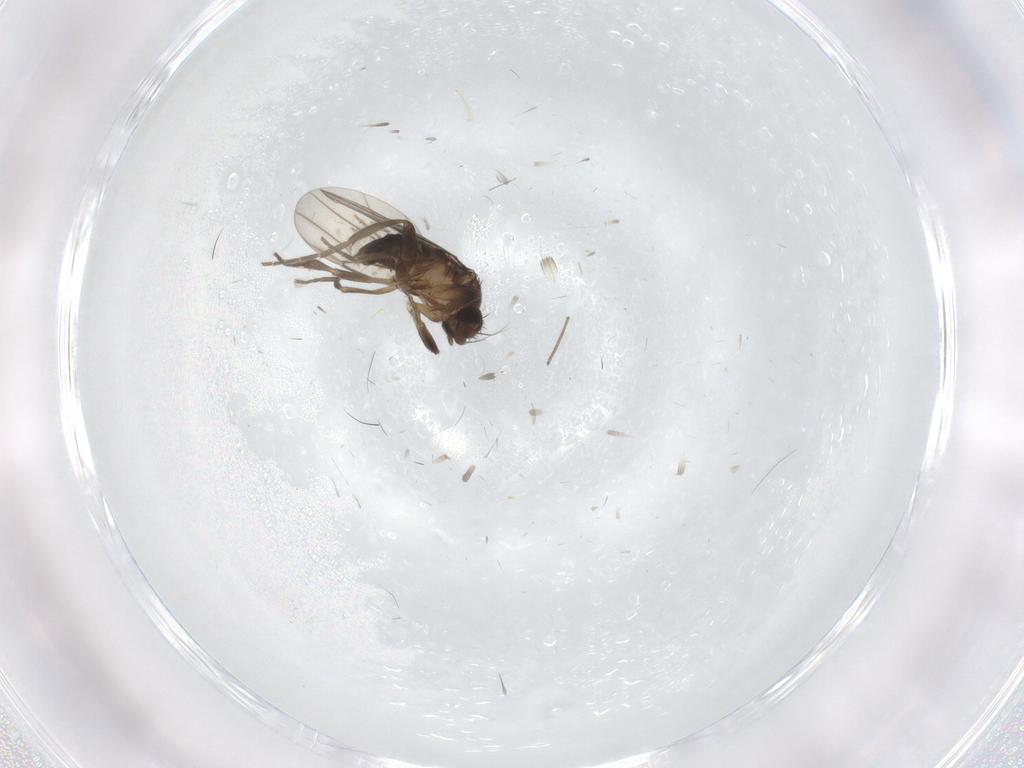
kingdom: Animalia
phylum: Arthropoda
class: Insecta
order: Diptera
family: Phoridae
